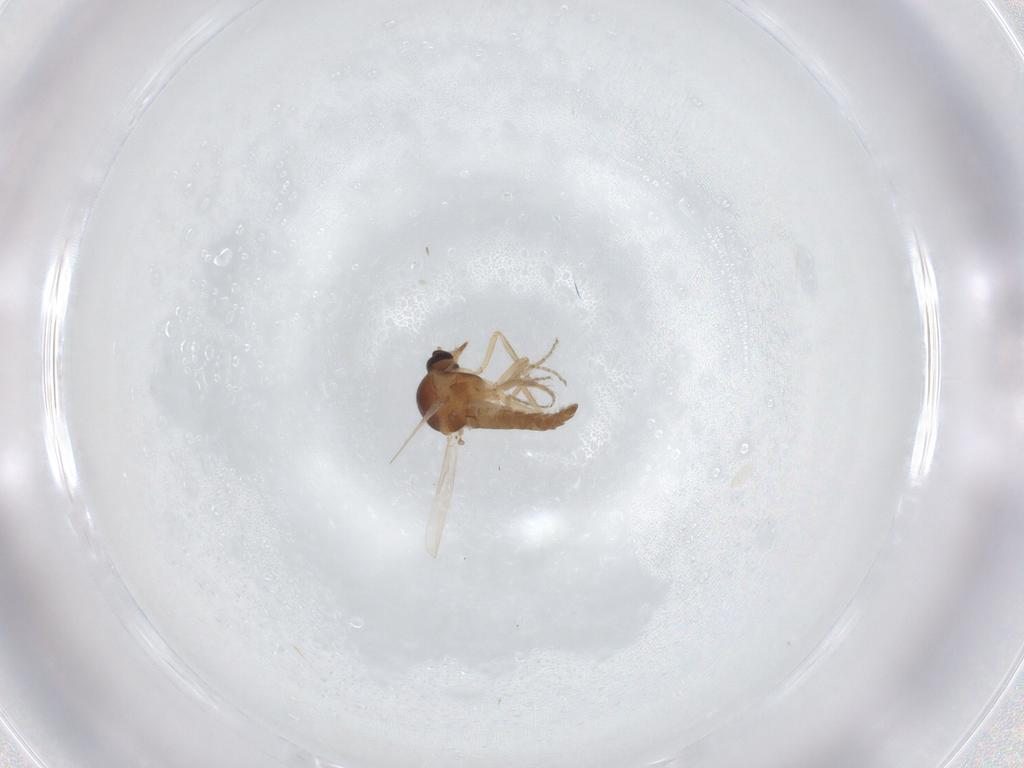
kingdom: Animalia
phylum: Arthropoda
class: Insecta
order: Diptera
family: Ceratopogonidae
